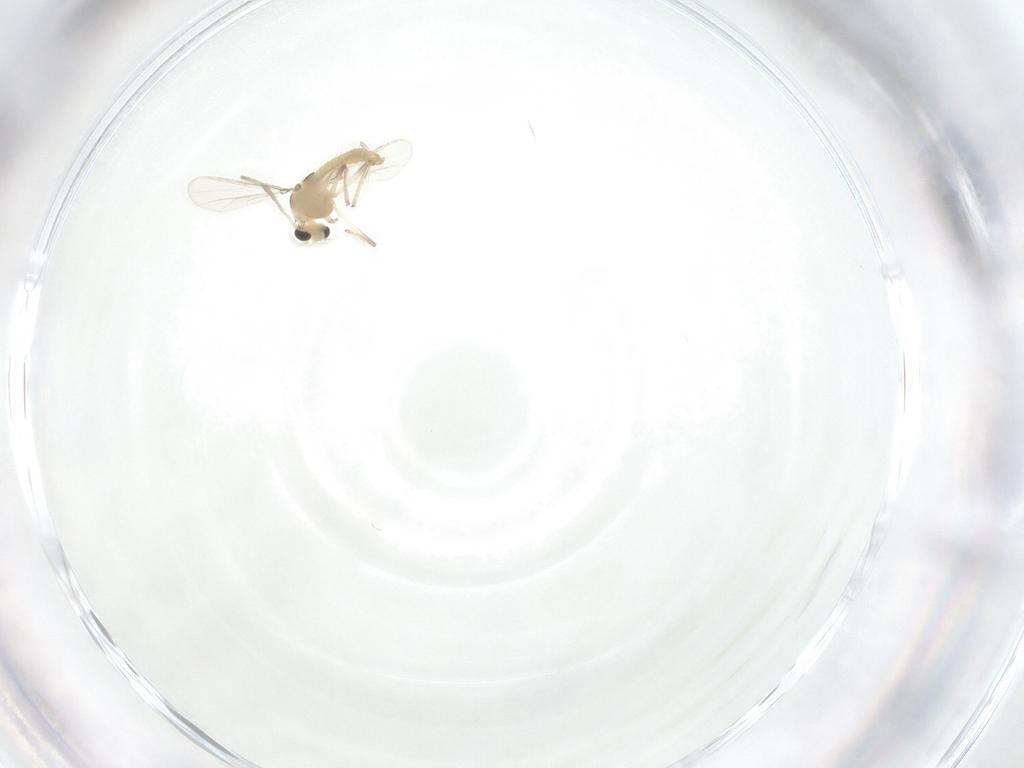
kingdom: Animalia
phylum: Arthropoda
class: Insecta
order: Diptera
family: Chironomidae
